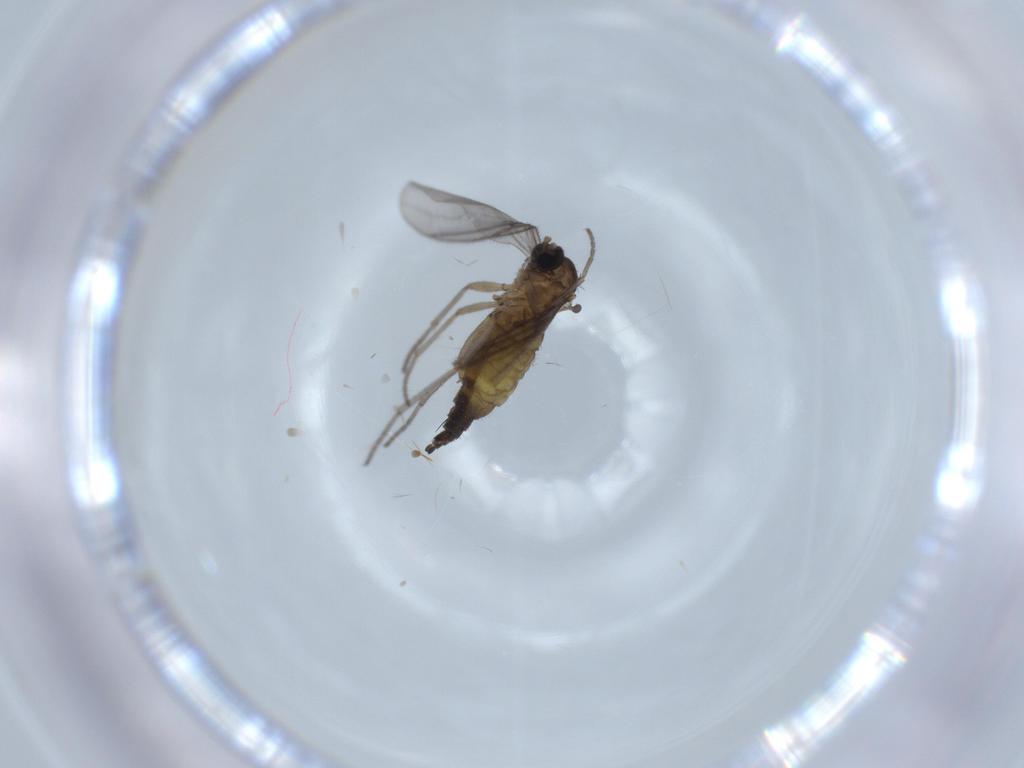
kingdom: Animalia
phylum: Arthropoda
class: Insecta
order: Diptera
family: Sciaridae
